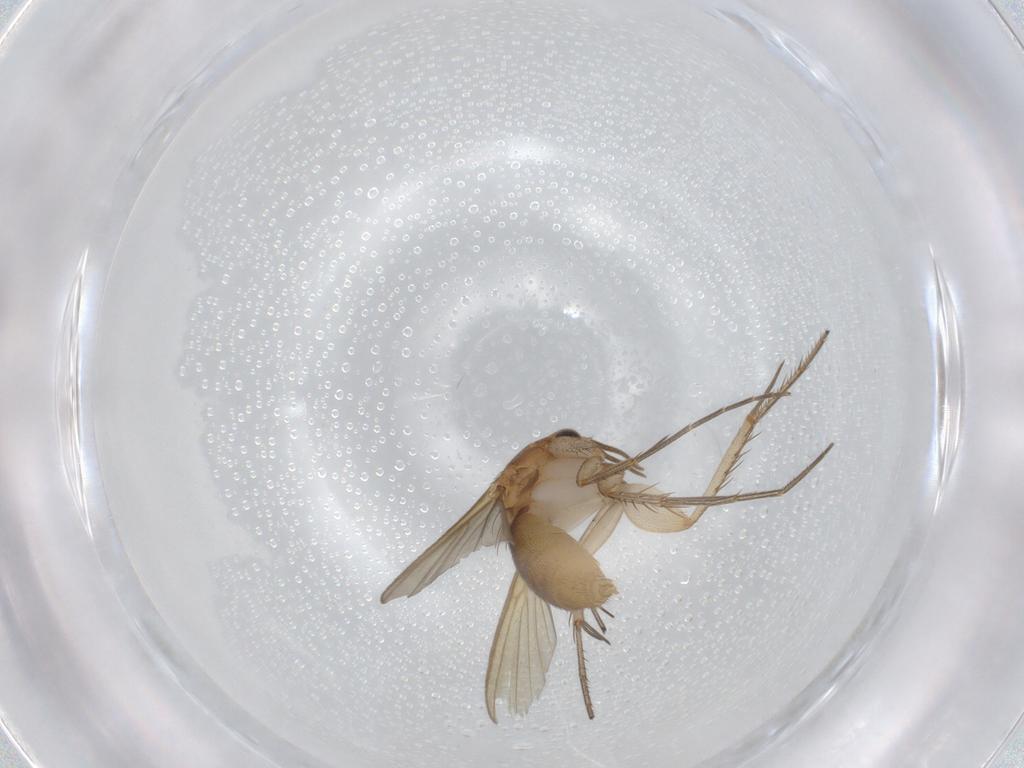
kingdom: Animalia
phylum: Arthropoda
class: Insecta
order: Diptera
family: Mycetophilidae
